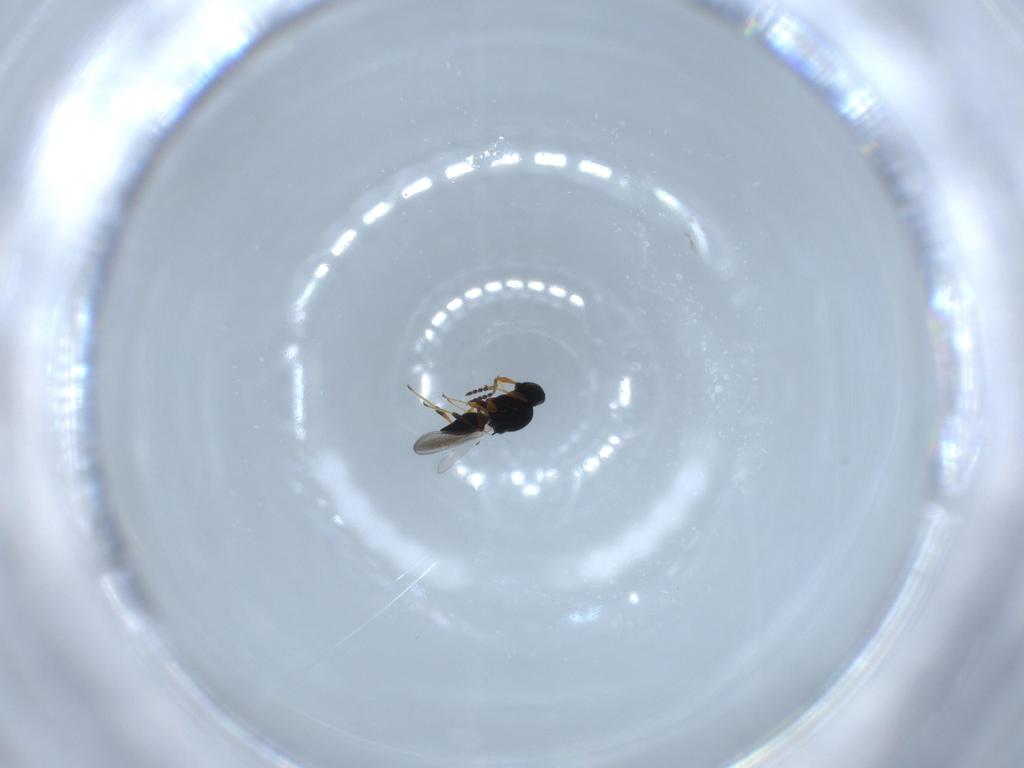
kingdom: Animalia
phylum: Arthropoda
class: Insecta
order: Hymenoptera
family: Platygastridae
